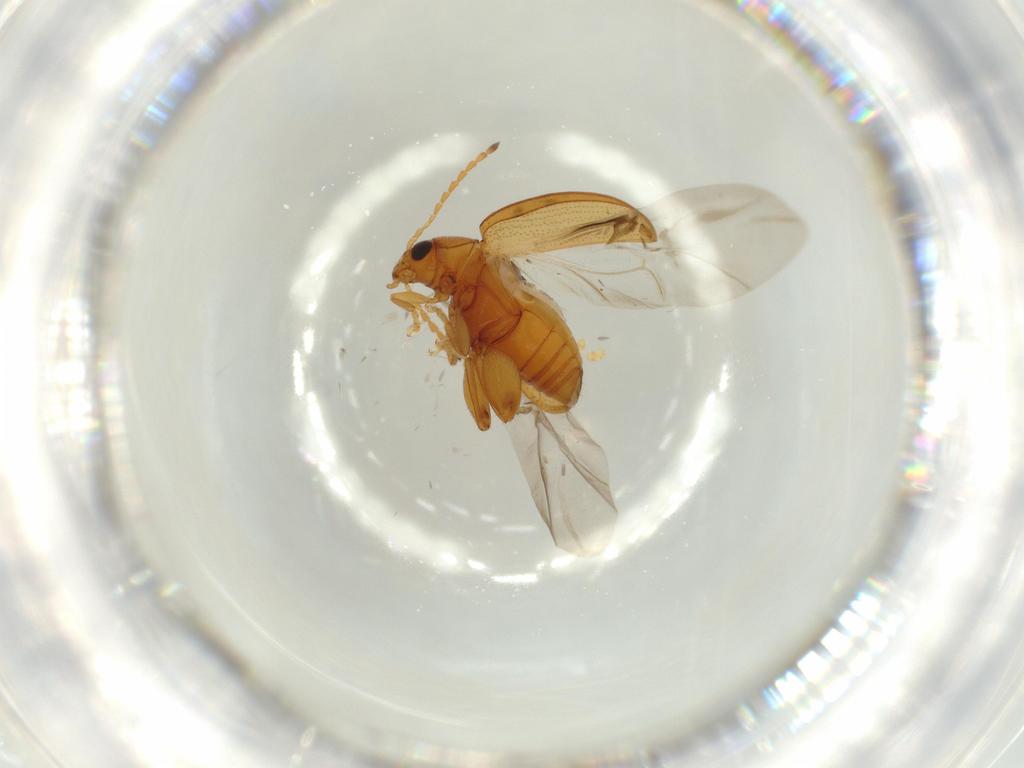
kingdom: Animalia
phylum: Arthropoda
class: Insecta
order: Coleoptera
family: Chrysomelidae
